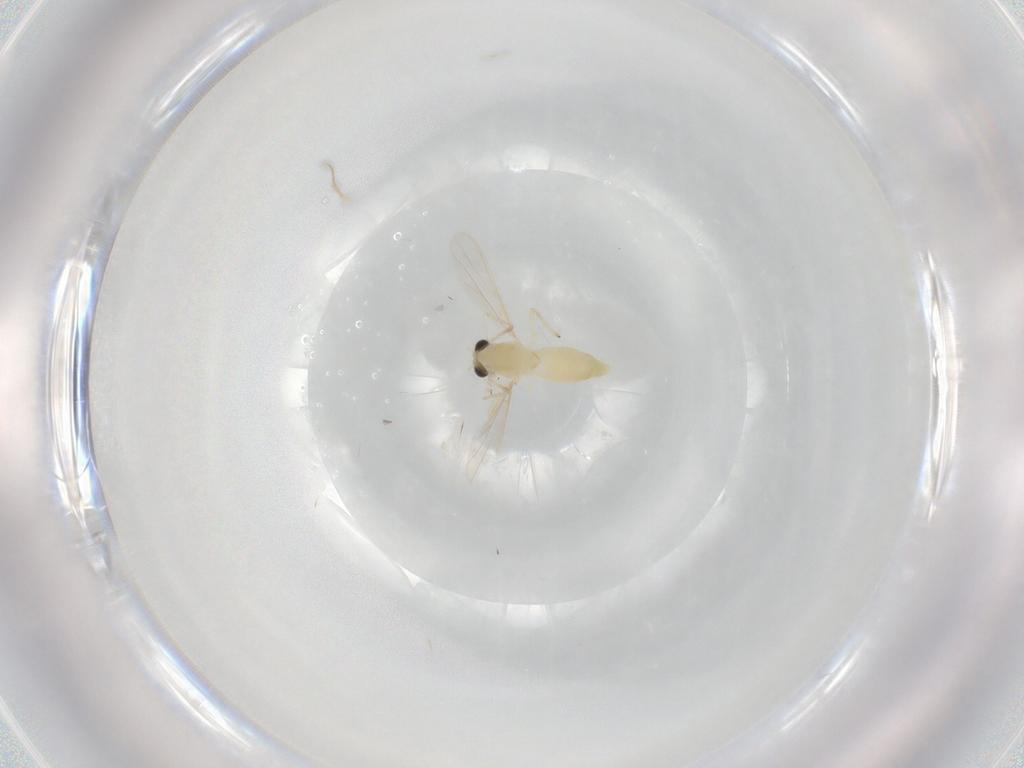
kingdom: Animalia
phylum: Arthropoda
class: Insecta
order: Diptera
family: Chironomidae
